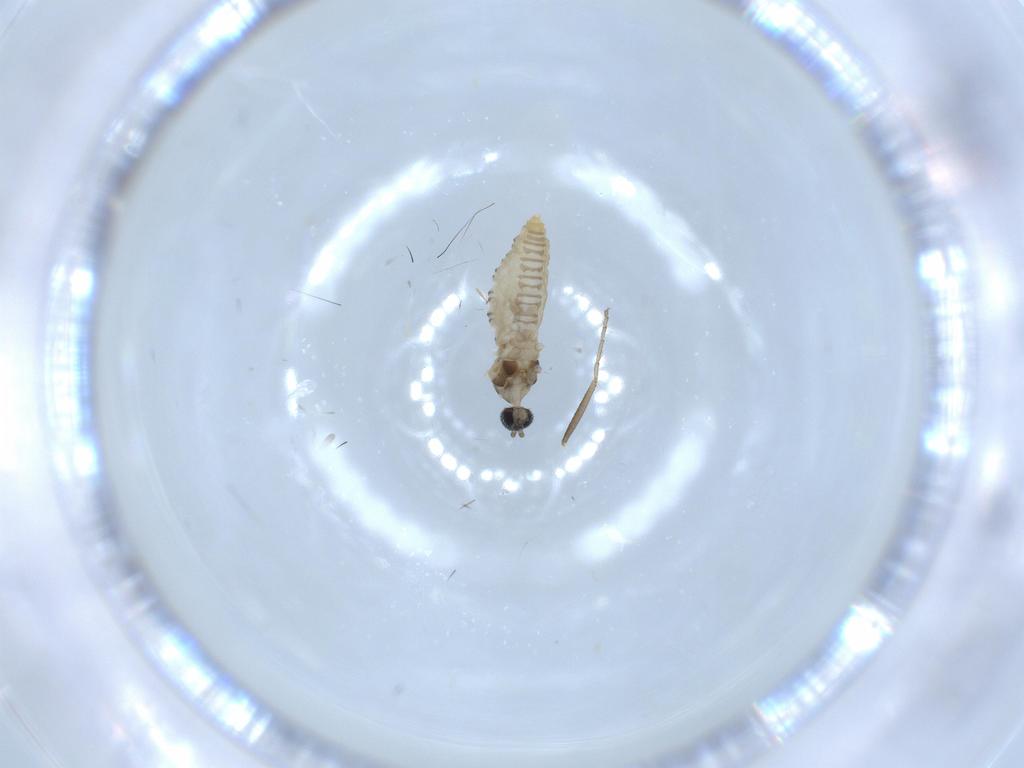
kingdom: Animalia
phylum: Arthropoda
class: Insecta
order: Diptera
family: Cecidomyiidae
